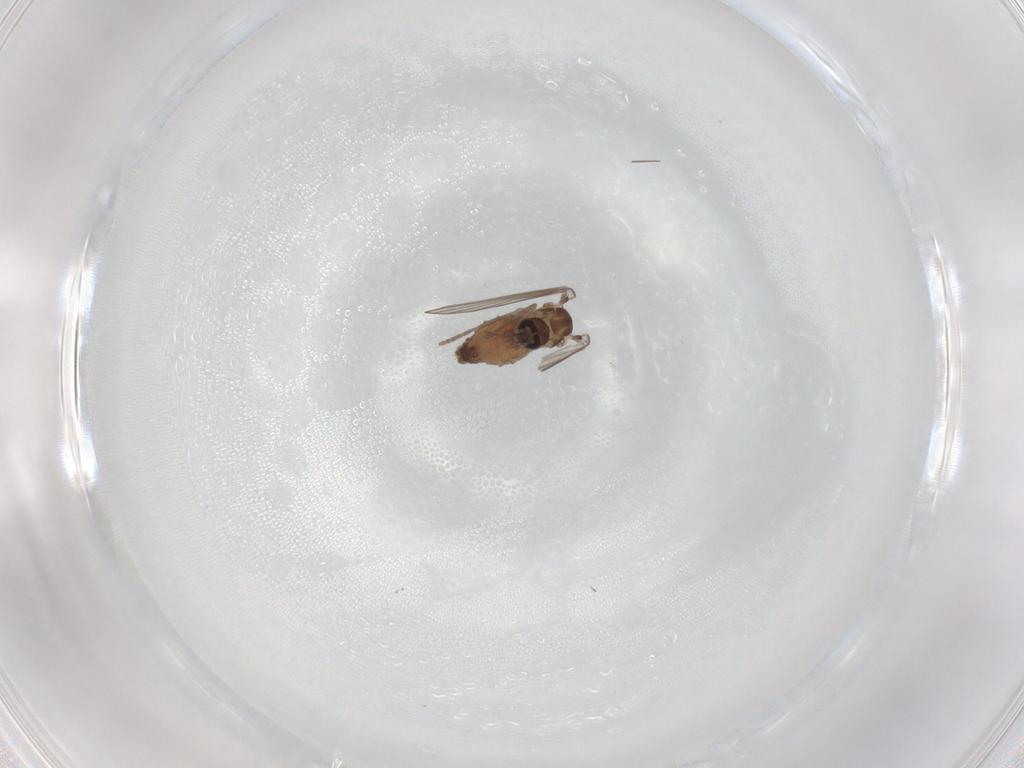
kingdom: Animalia
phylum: Arthropoda
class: Insecta
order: Diptera
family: Psychodidae
